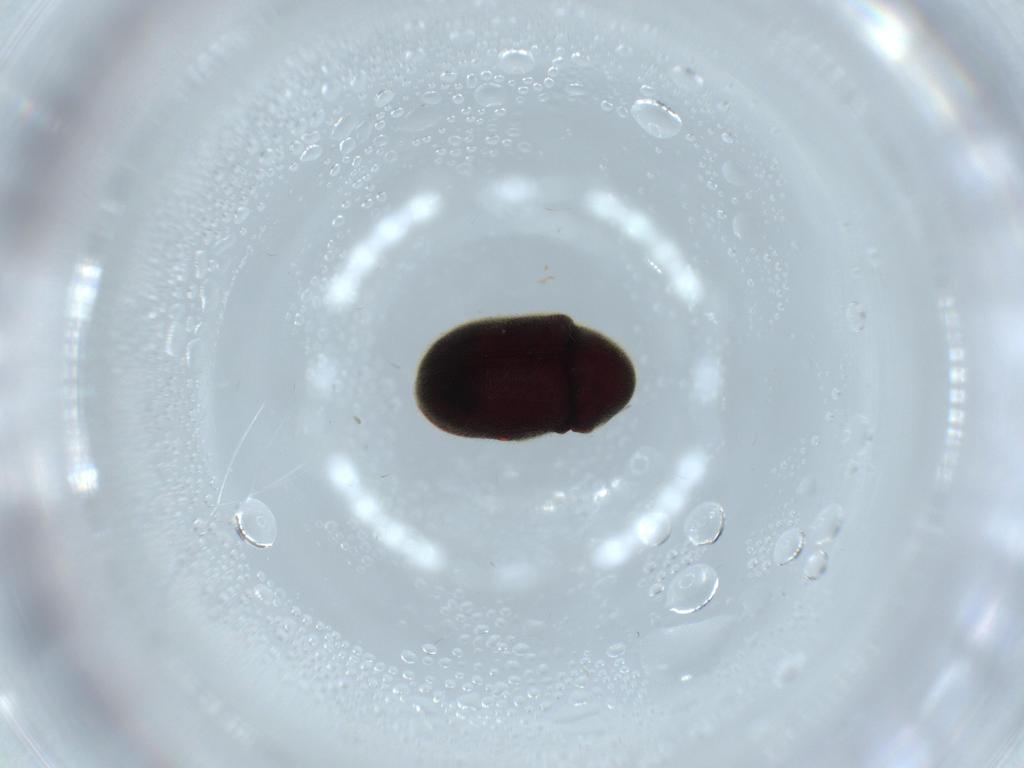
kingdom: Animalia
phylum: Arthropoda
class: Insecta
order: Coleoptera
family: Ptinidae
